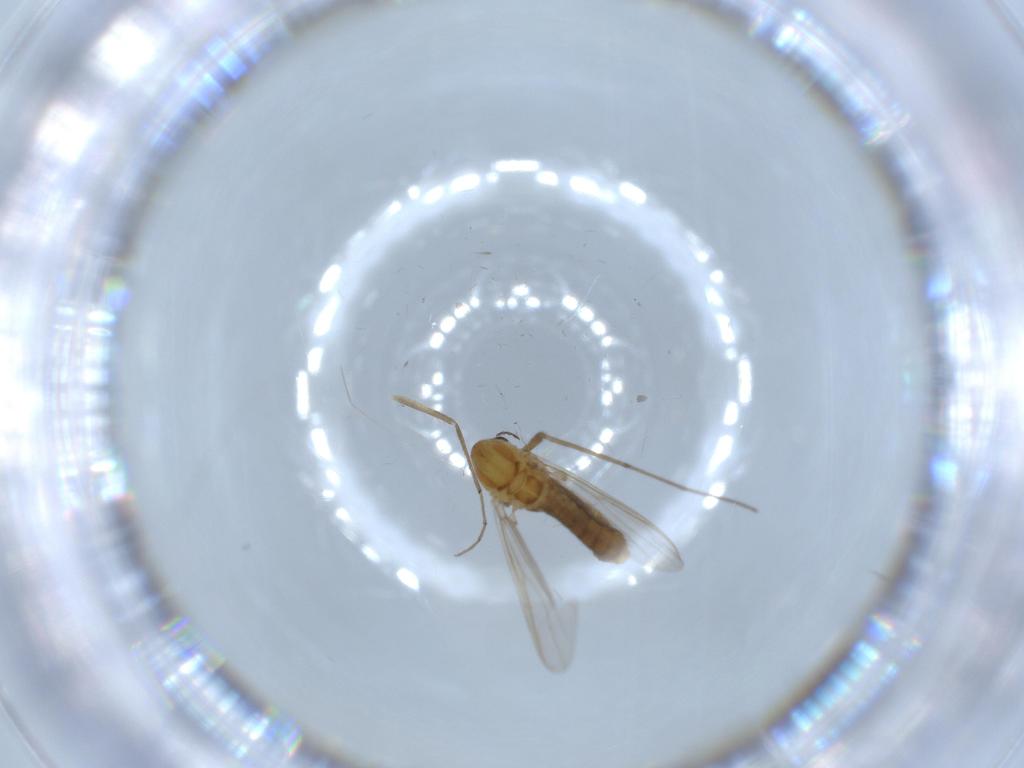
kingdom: Animalia
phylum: Arthropoda
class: Insecta
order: Diptera
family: Chironomidae
